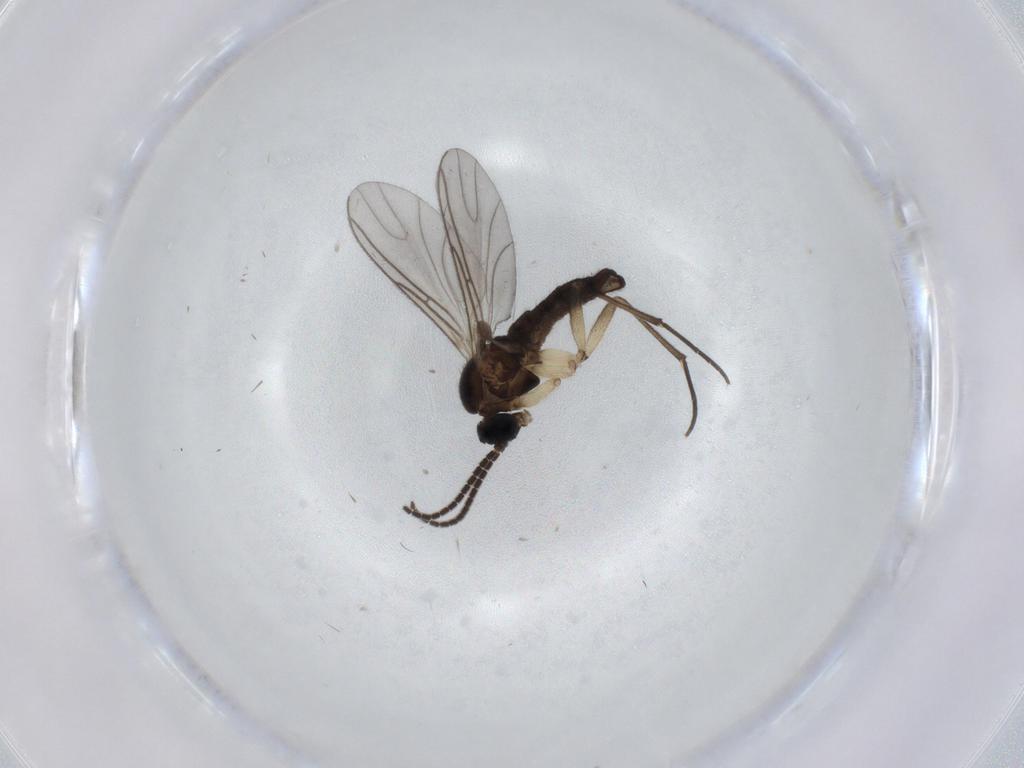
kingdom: Animalia
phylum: Arthropoda
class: Insecta
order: Diptera
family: Sciaridae
